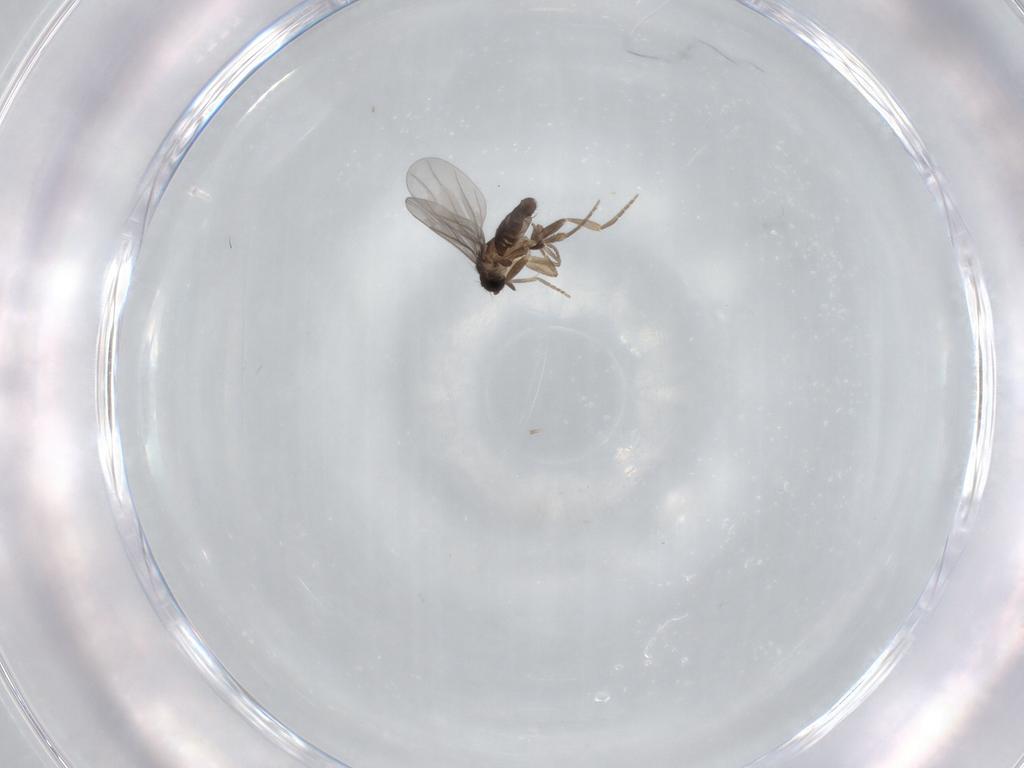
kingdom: Animalia
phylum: Arthropoda
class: Insecta
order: Diptera
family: Phoridae
